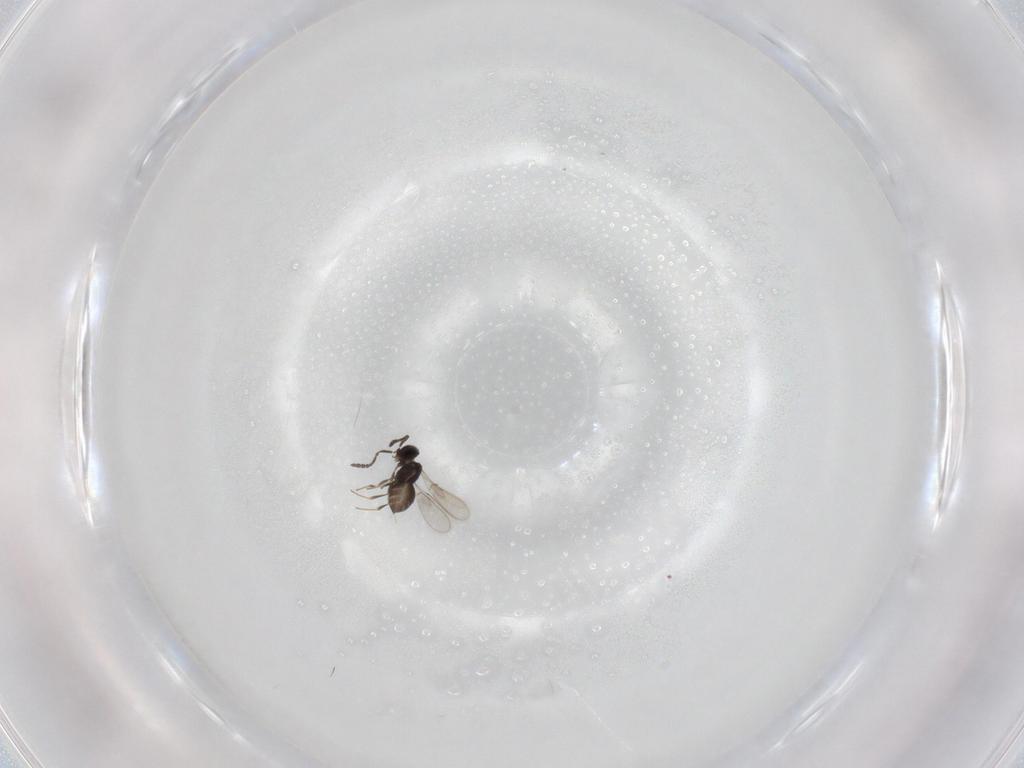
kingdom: Animalia
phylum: Arthropoda
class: Insecta
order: Hymenoptera
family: Scelionidae
